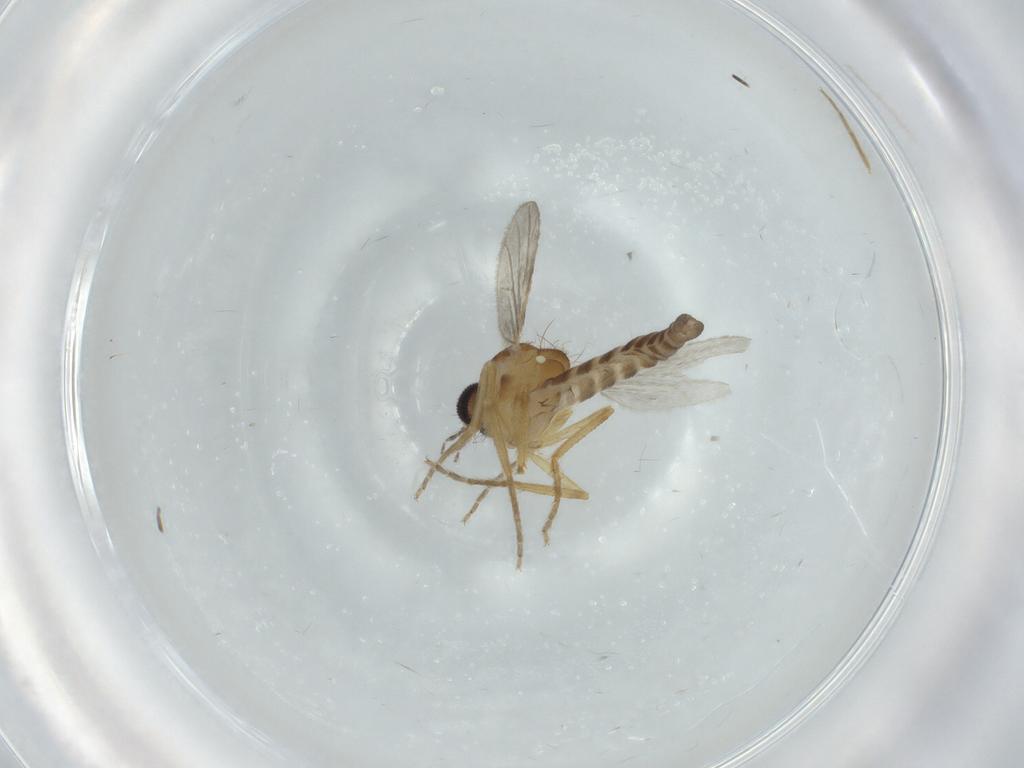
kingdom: Animalia
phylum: Arthropoda
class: Insecta
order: Diptera
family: Ceratopogonidae
